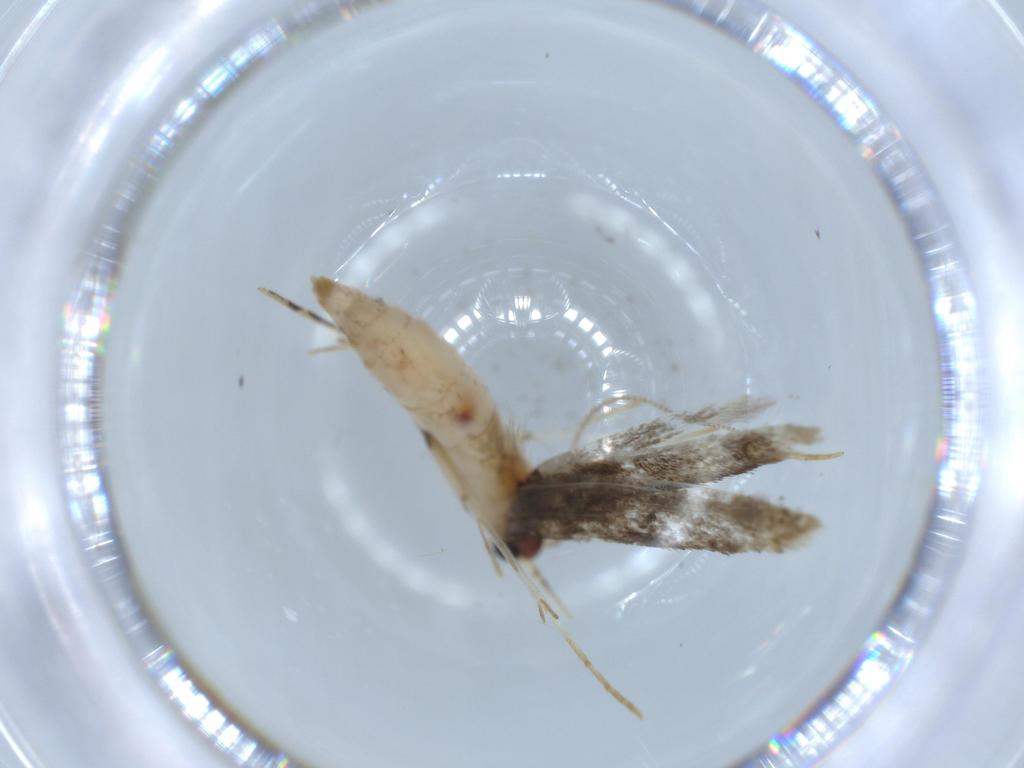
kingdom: Animalia
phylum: Arthropoda
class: Insecta
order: Lepidoptera
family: Tineidae
